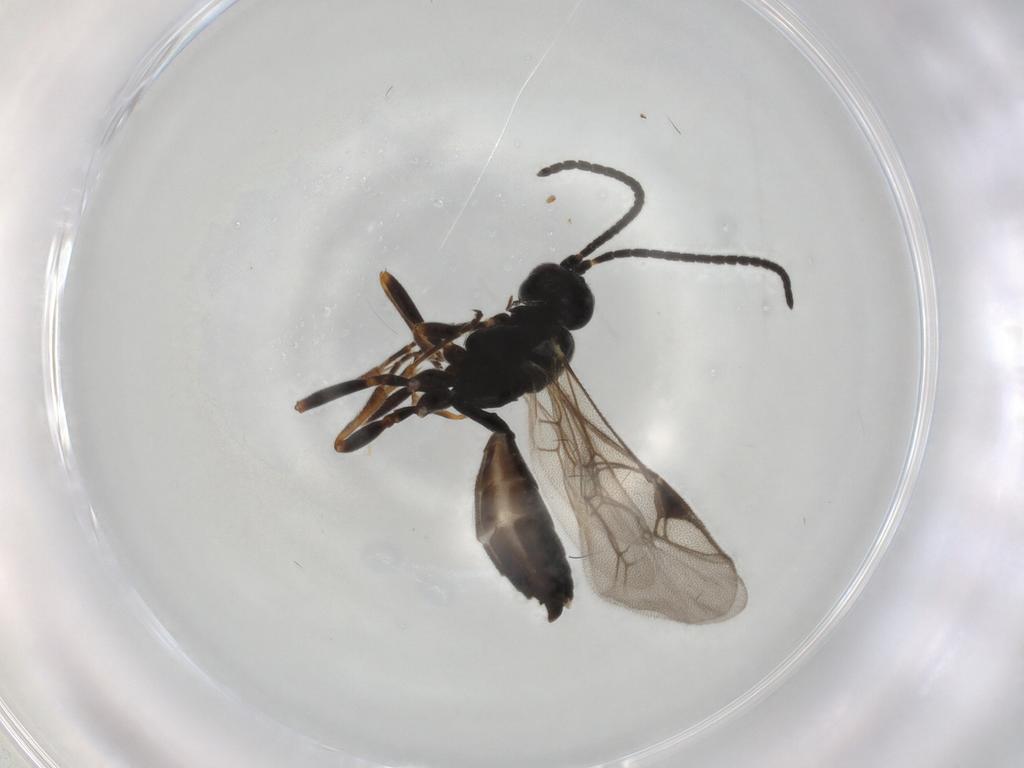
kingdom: Animalia
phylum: Arthropoda
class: Insecta
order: Hymenoptera
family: Ichneumonidae
